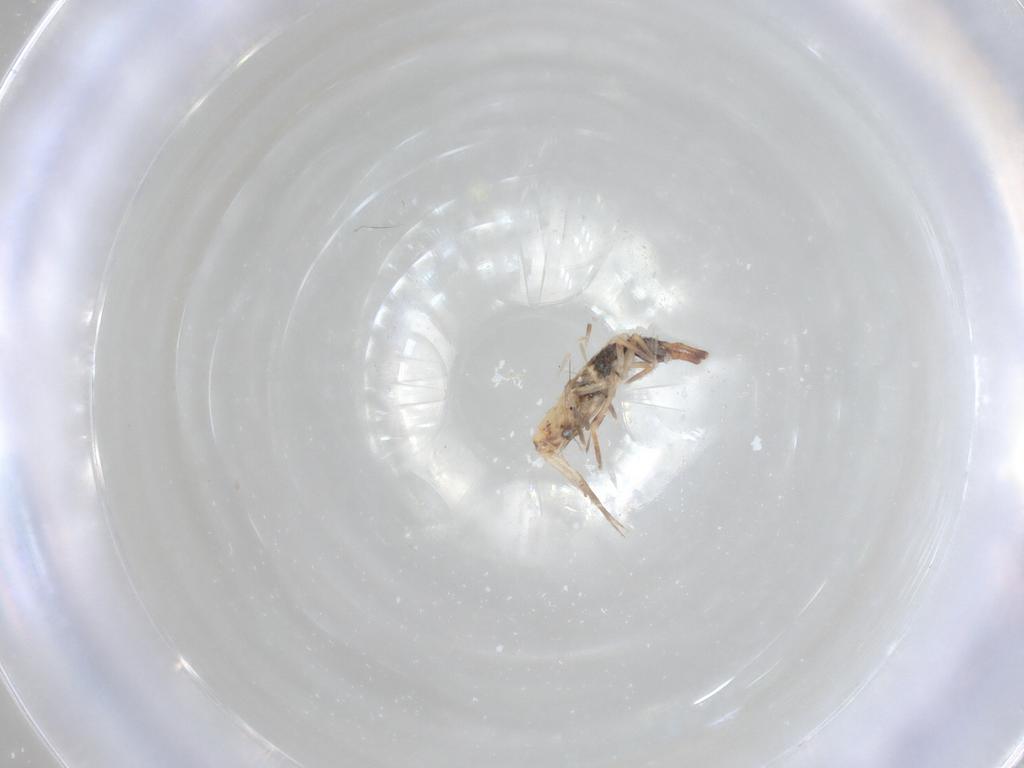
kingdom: Animalia
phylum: Arthropoda
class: Collembola
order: Entomobryomorpha
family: Entomobryidae
